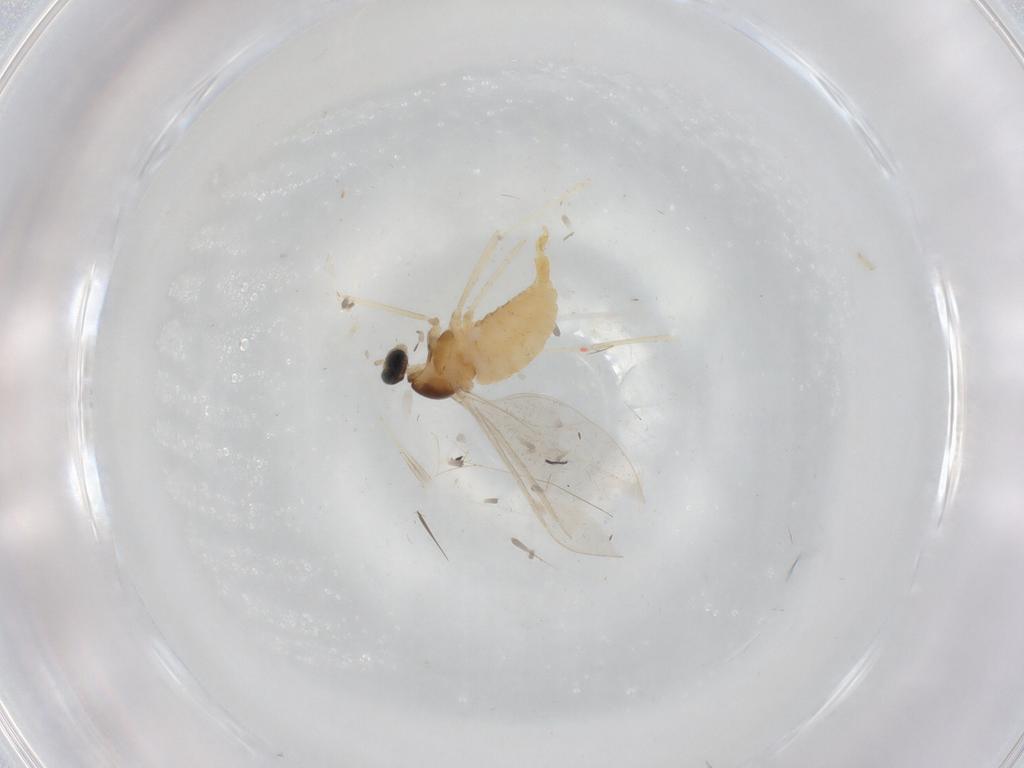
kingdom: Animalia
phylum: Arthropoda
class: Insecta
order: Diptera
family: Cecidomyiidae
